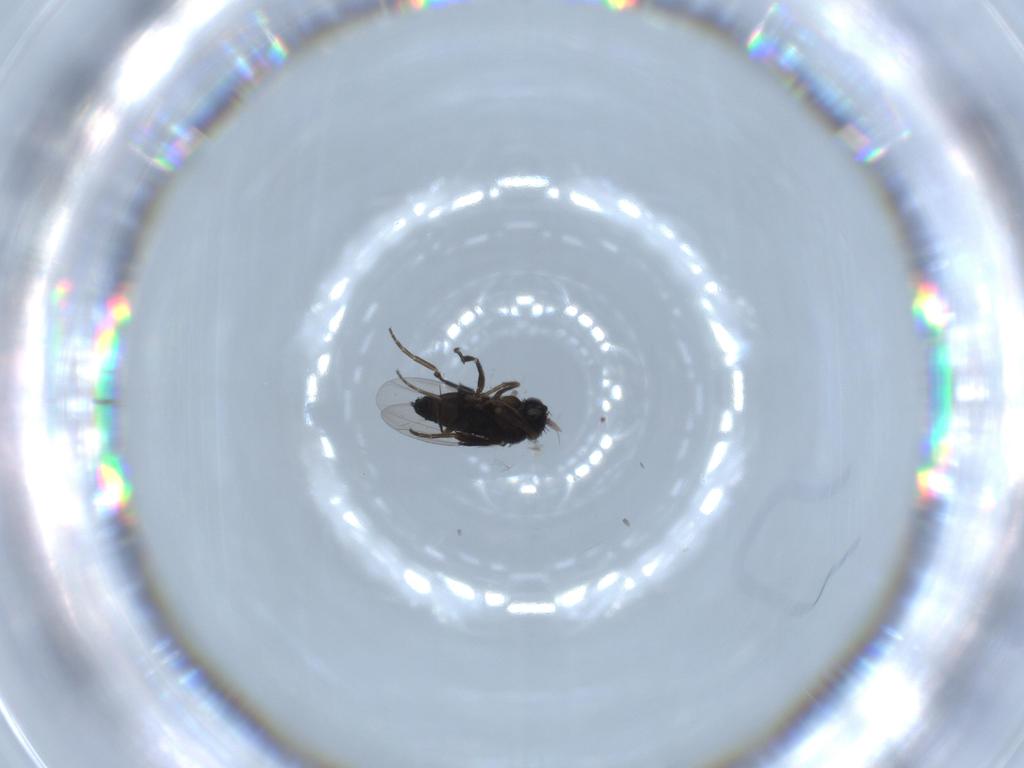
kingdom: Animalia
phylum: Arthropoda
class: Insecta
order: Diptera
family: Phoridae
